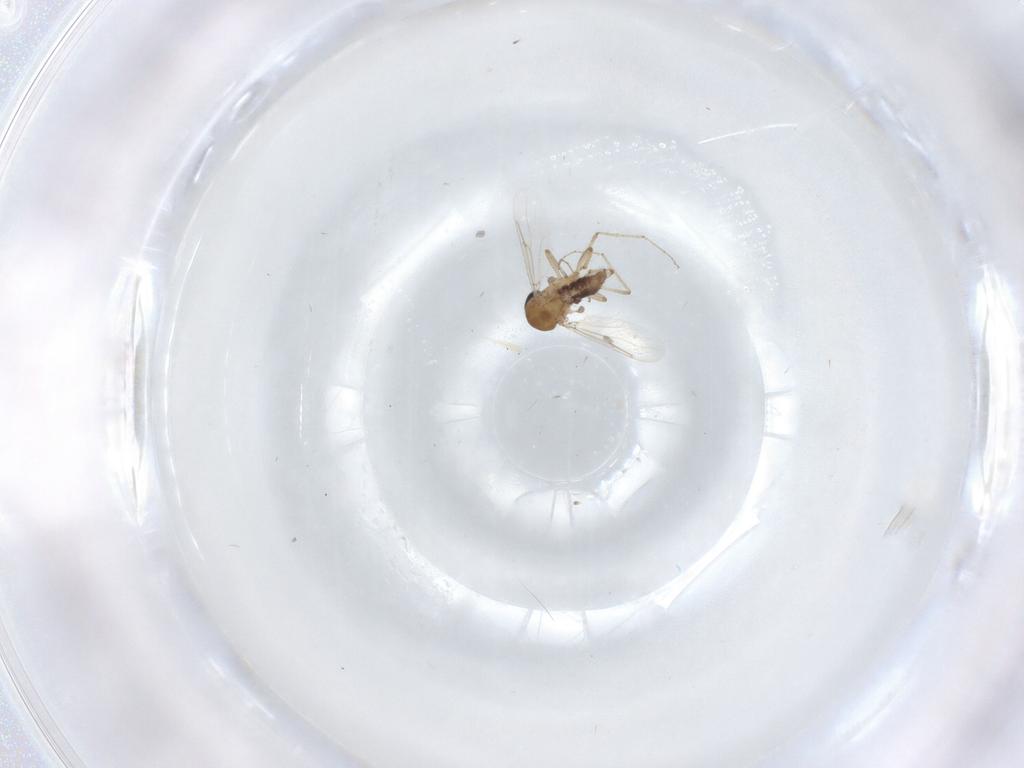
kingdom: Animalia
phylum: Arthropoda
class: Insecta
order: Diptera
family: Ceratopogonidae
